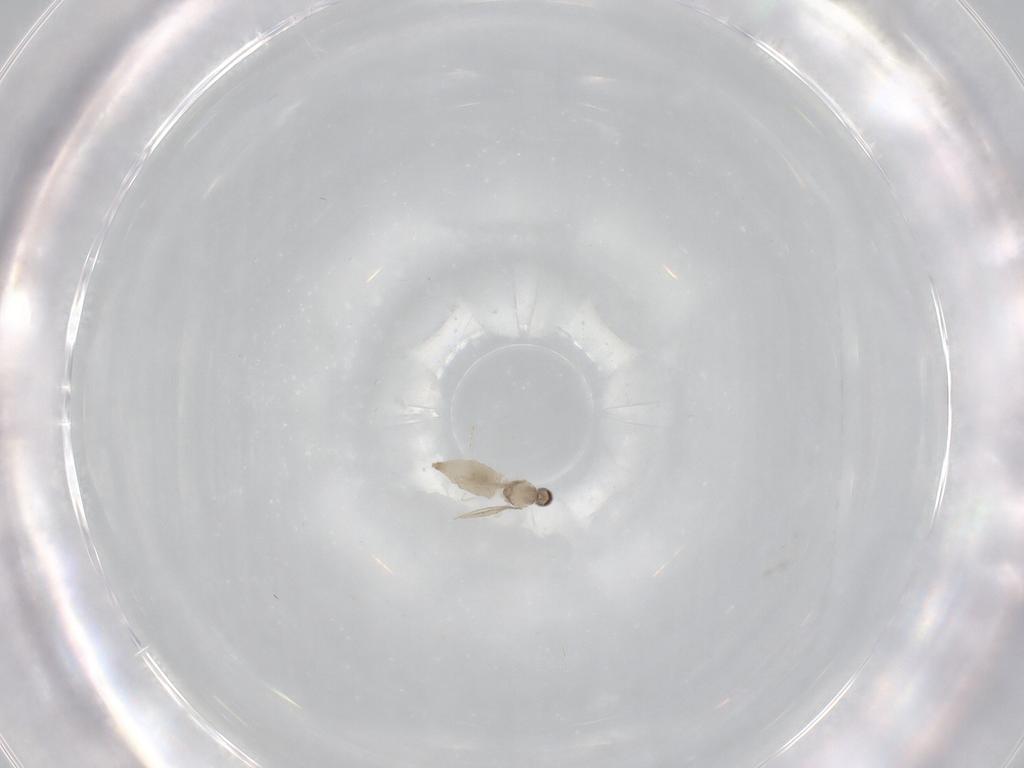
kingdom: Animalia
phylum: Arthropoda
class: Insecta
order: Diptera
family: Cecidomyiidae
